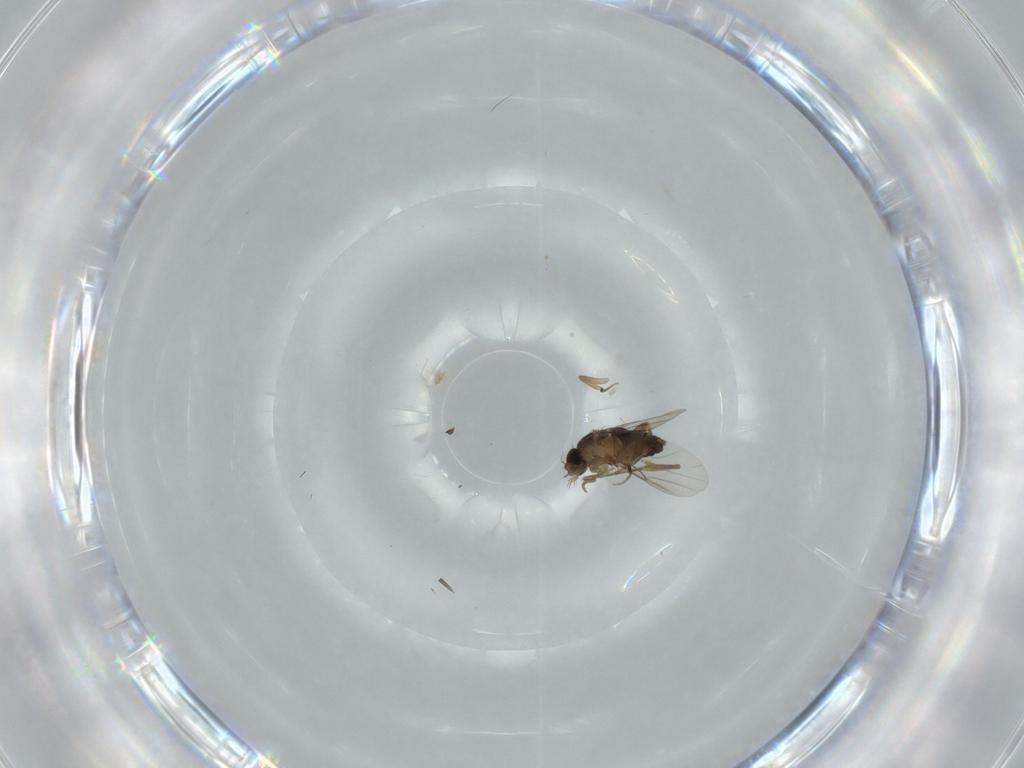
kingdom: Animalia
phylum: Arthropoda
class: Insecta
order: Diptera
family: Phoridae
